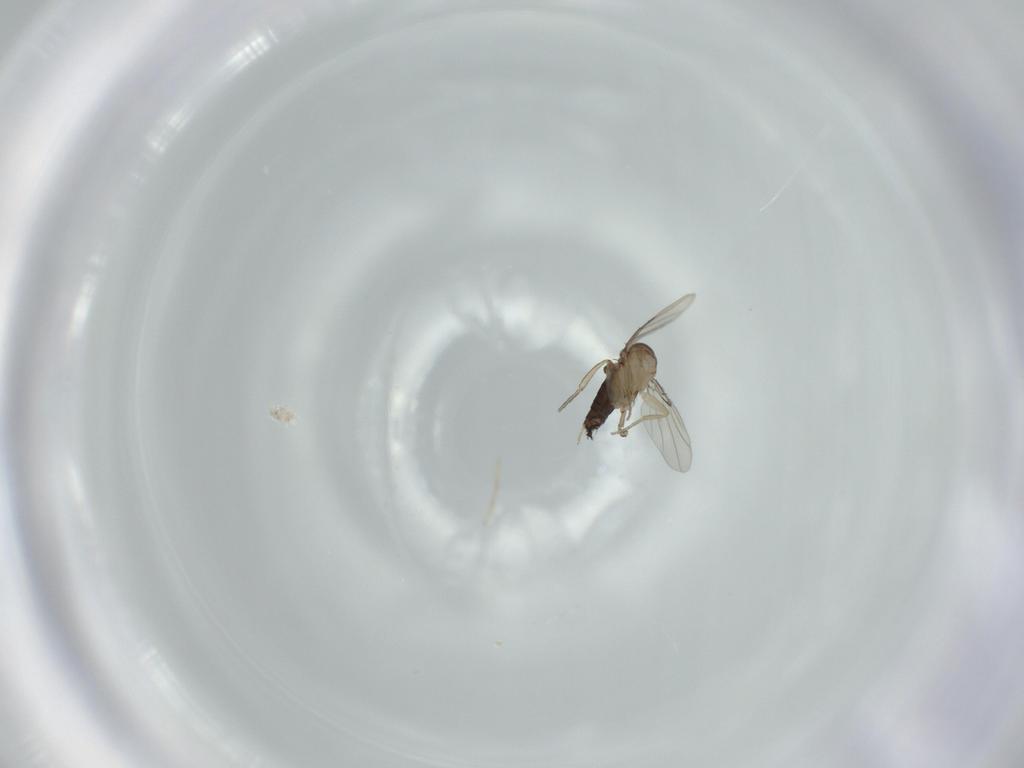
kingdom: Animalia
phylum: Arthropoda
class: Insecta
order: Diptera
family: Phoridae
